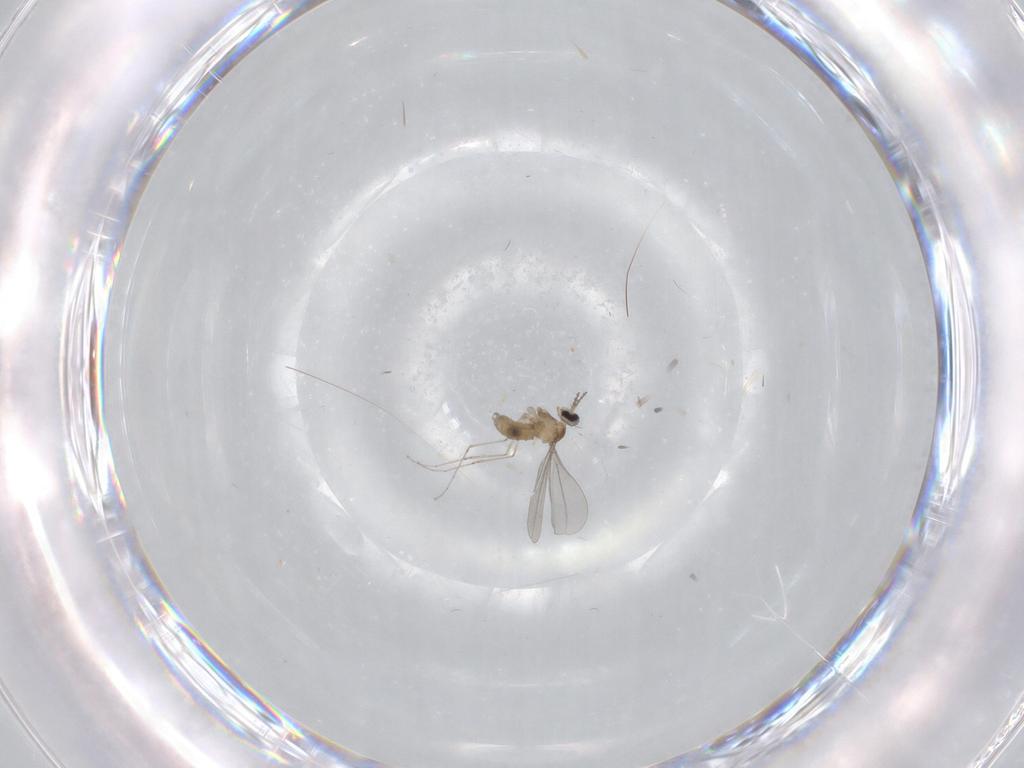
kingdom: Animalia
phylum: Arthropoda
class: Insecta
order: Diptera
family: Cecidomyiidae
